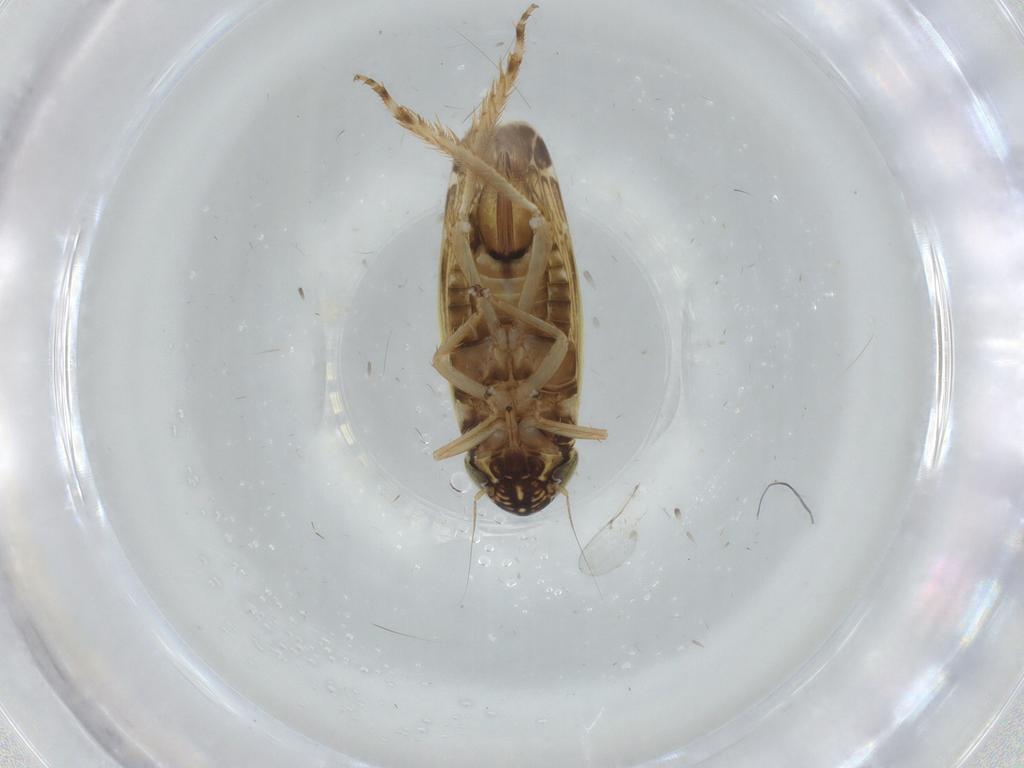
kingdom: Animalia
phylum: Arthropoda
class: Insecta
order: Hemiptera
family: Cicadellidae
